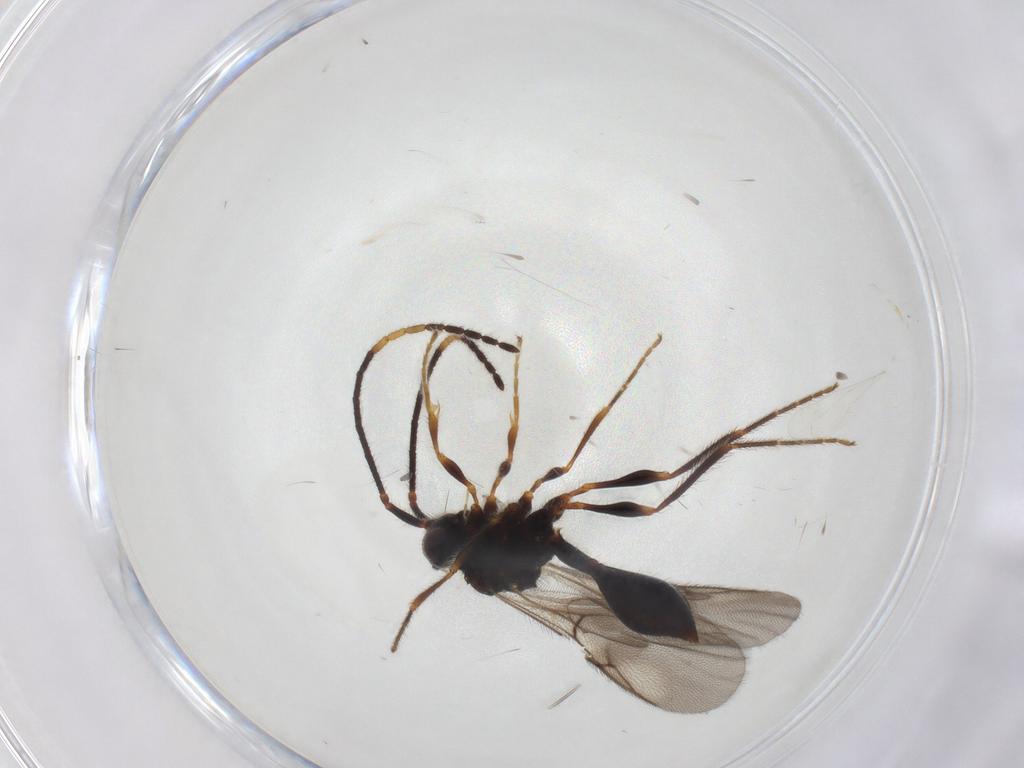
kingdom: Animalia
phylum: Arthropoda
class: Insecta
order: Hymenoptera
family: Diapriidae
